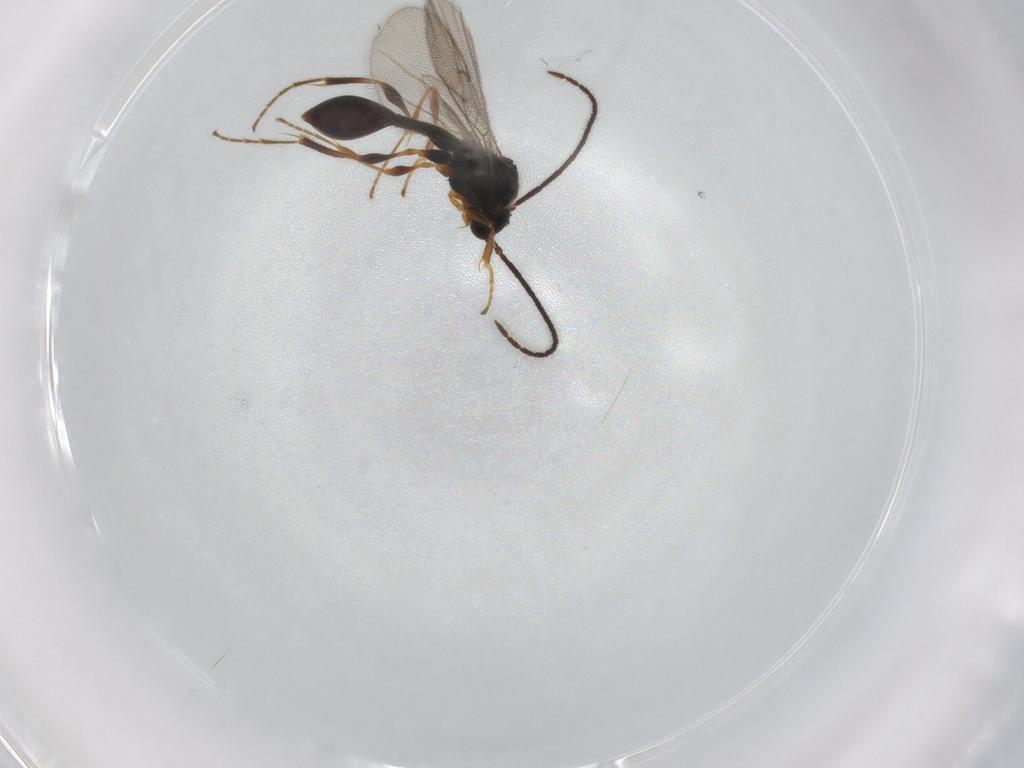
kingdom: Animalia
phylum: Arthropoda
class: Insecta
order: Hymenoptera
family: Diapriidae
